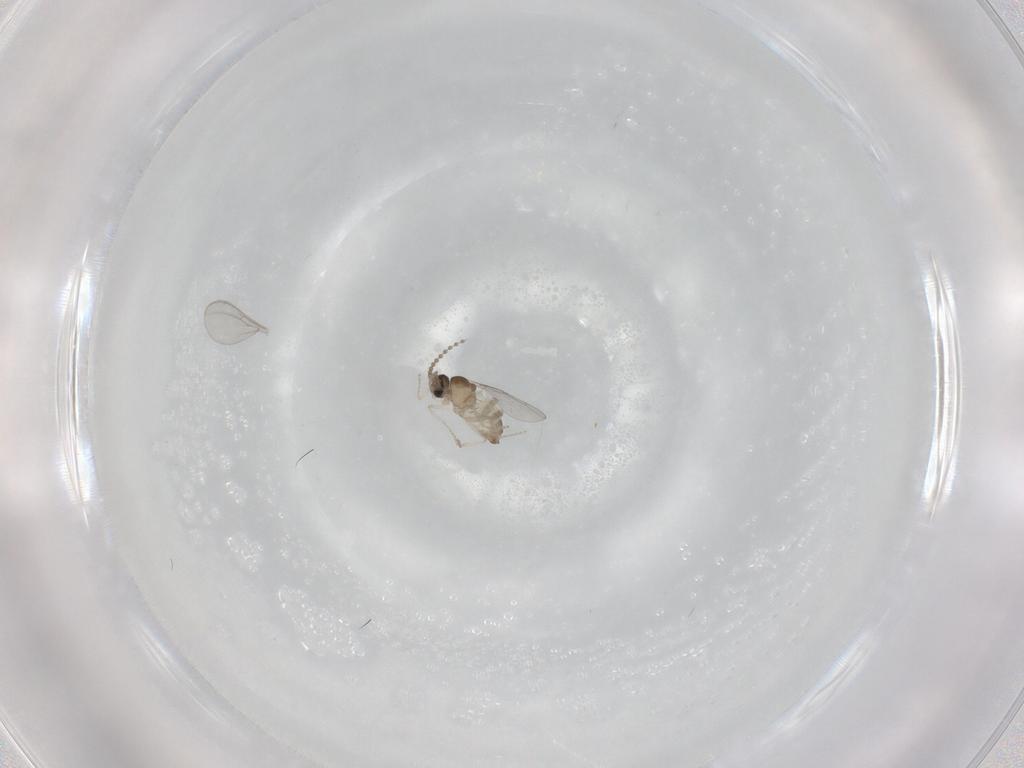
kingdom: Animalia
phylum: Arthropoda
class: Insecta
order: Diptera
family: Cecidomyiidae
